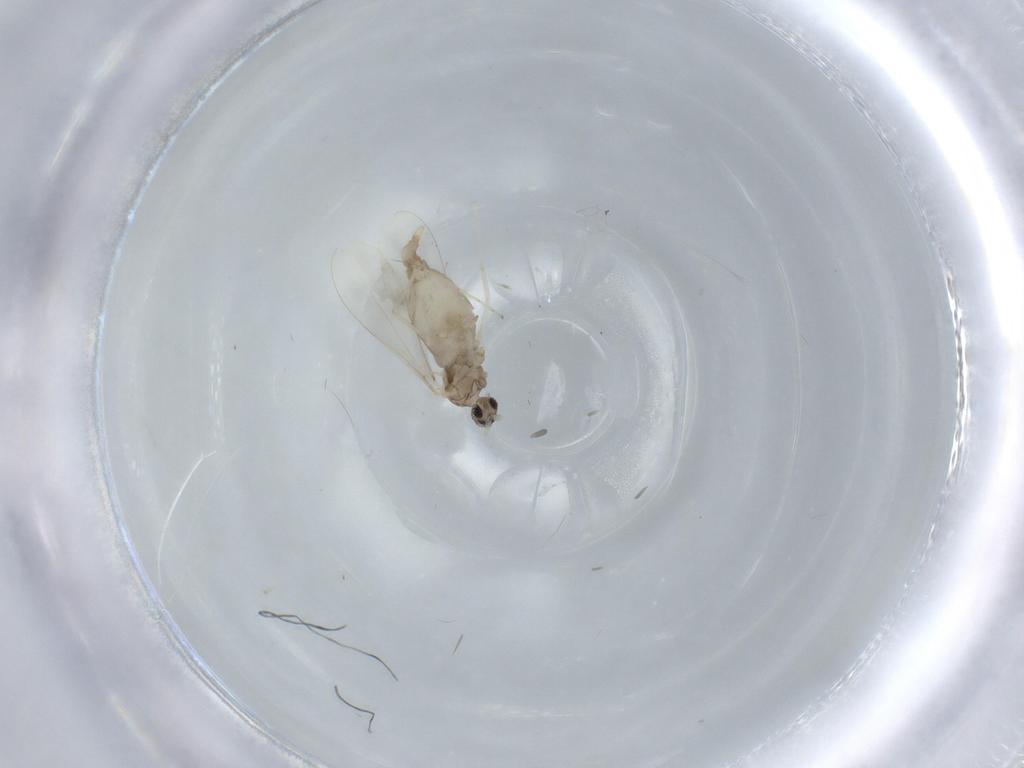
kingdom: Animalia
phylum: Arthropoda
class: Insecta
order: Diptera
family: Cecidomyiidae
